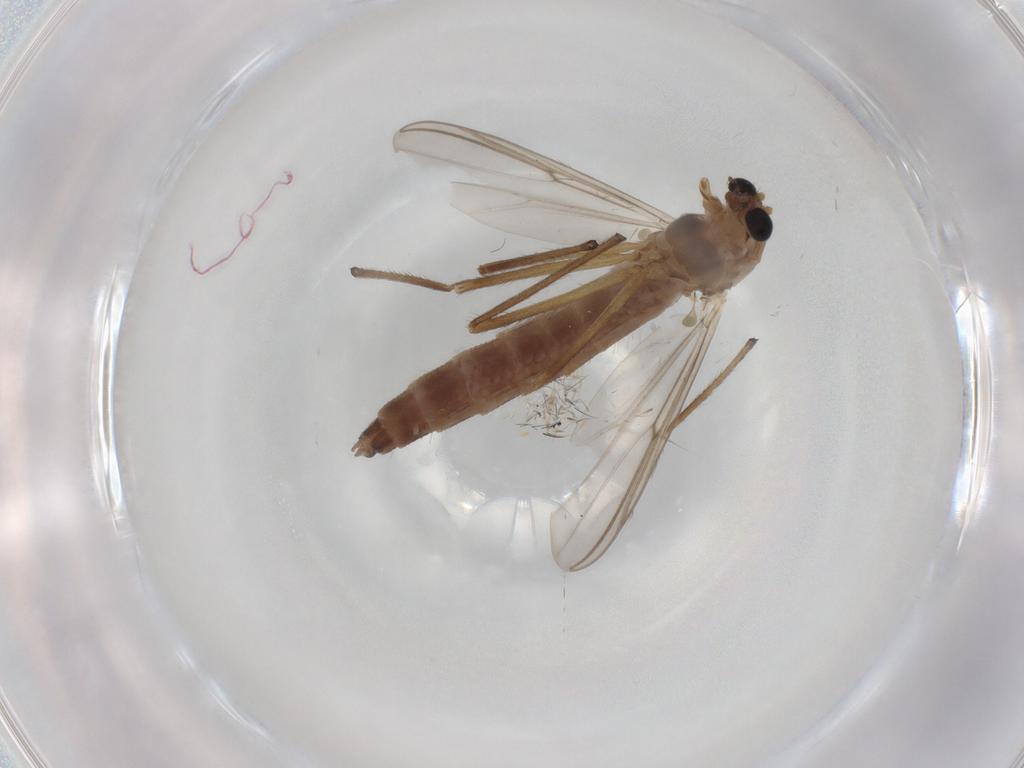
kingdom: Animalia
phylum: Arthropoda
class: Insecta
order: Diptera
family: Chironomidae
